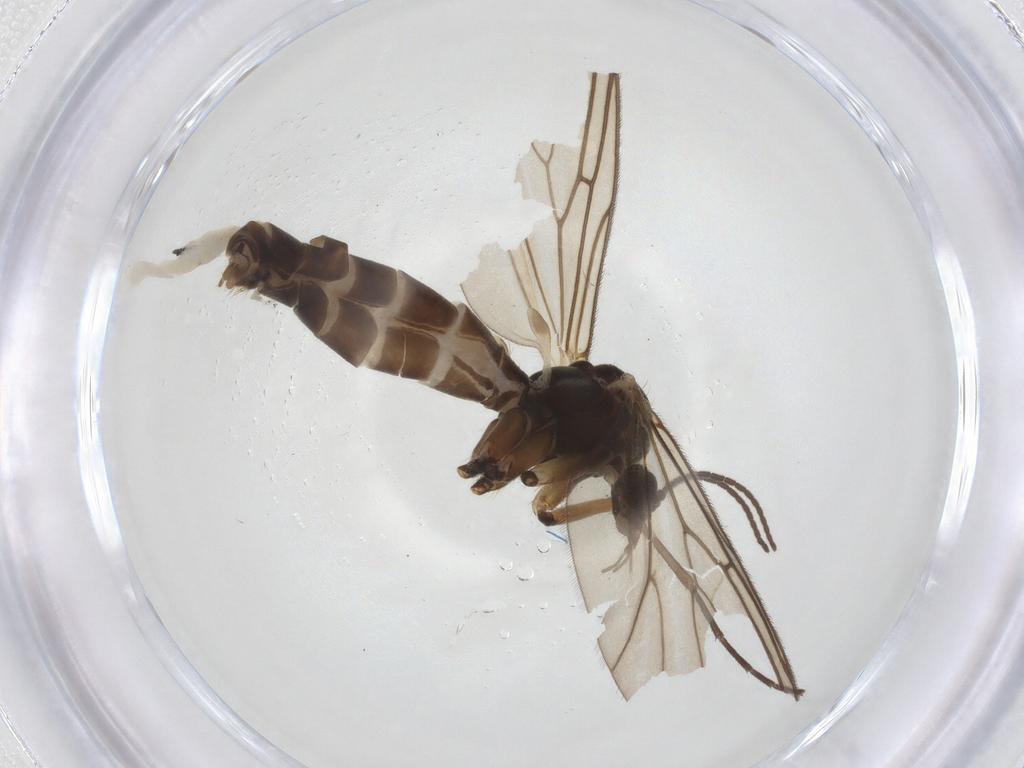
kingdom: Animalia
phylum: Arthropoda
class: Insecta
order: Diptera
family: Mycetophilidae
